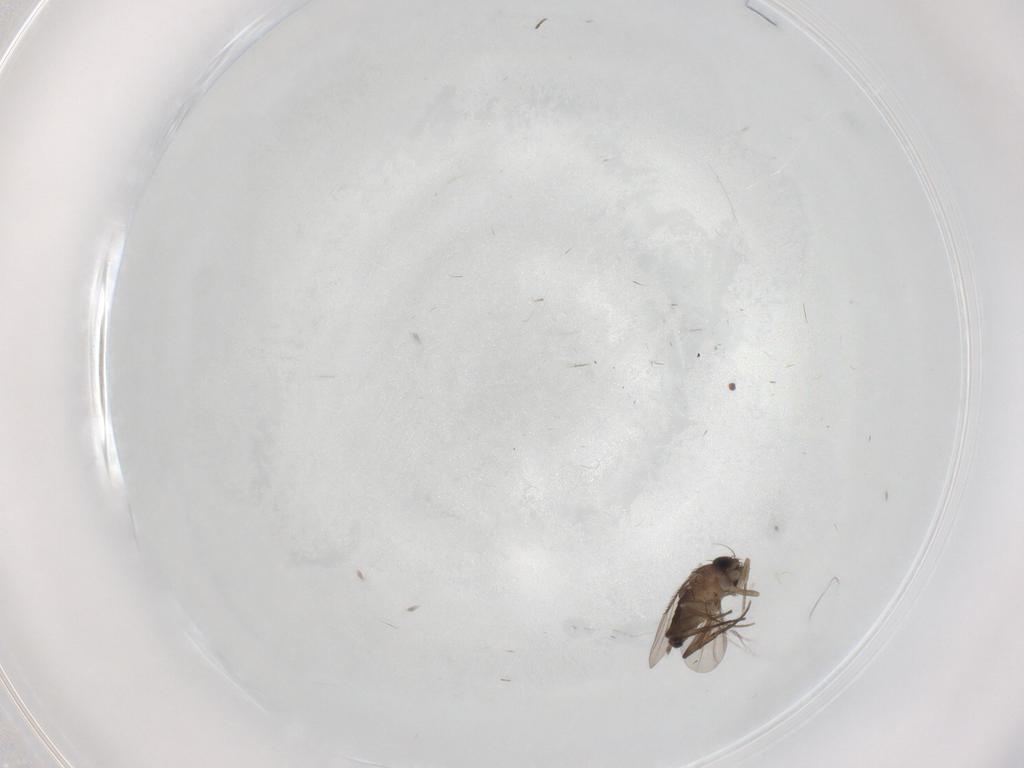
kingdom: Animalia
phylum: Arthropoda
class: Insecta
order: Diptera
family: Phoridae
